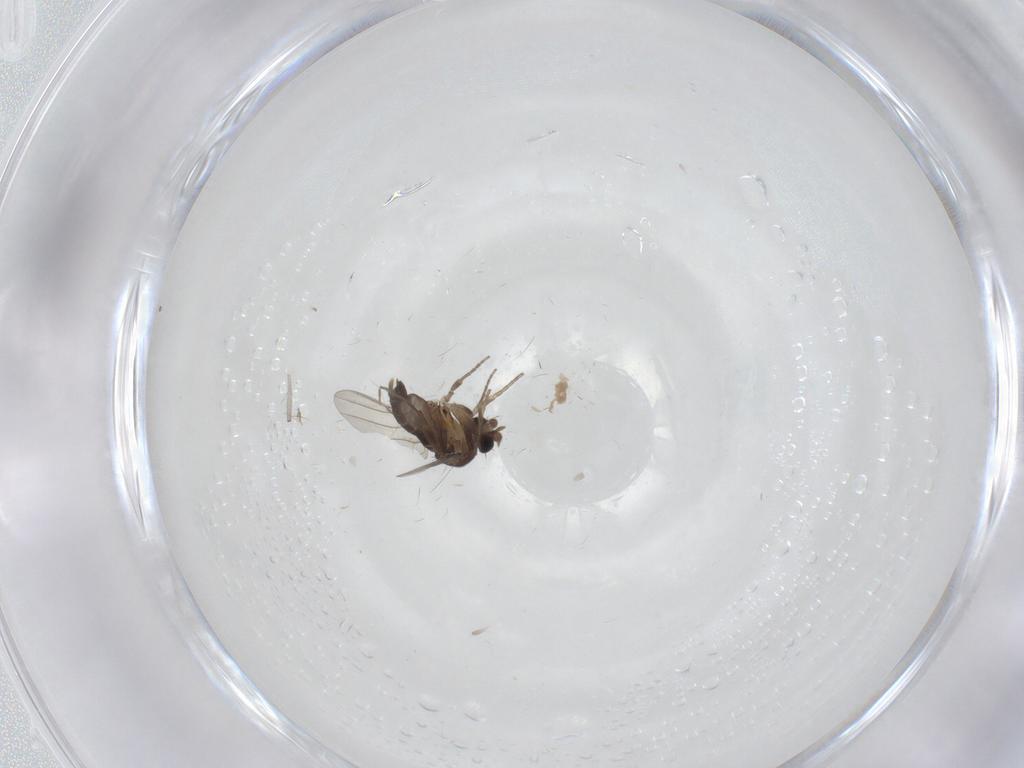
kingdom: Animalia
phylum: Arthropoda
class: Insecta
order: Diptera
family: Phoridae
